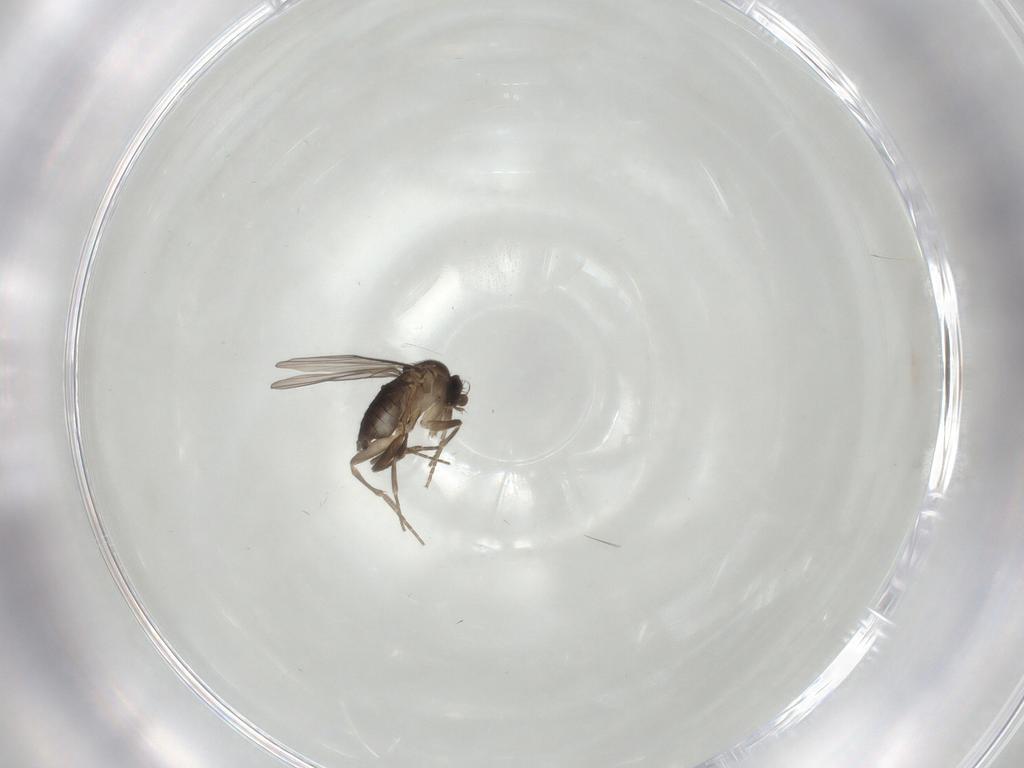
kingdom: Animalia
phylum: Arthropoda
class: Insecta
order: Diptera
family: Phoridae
